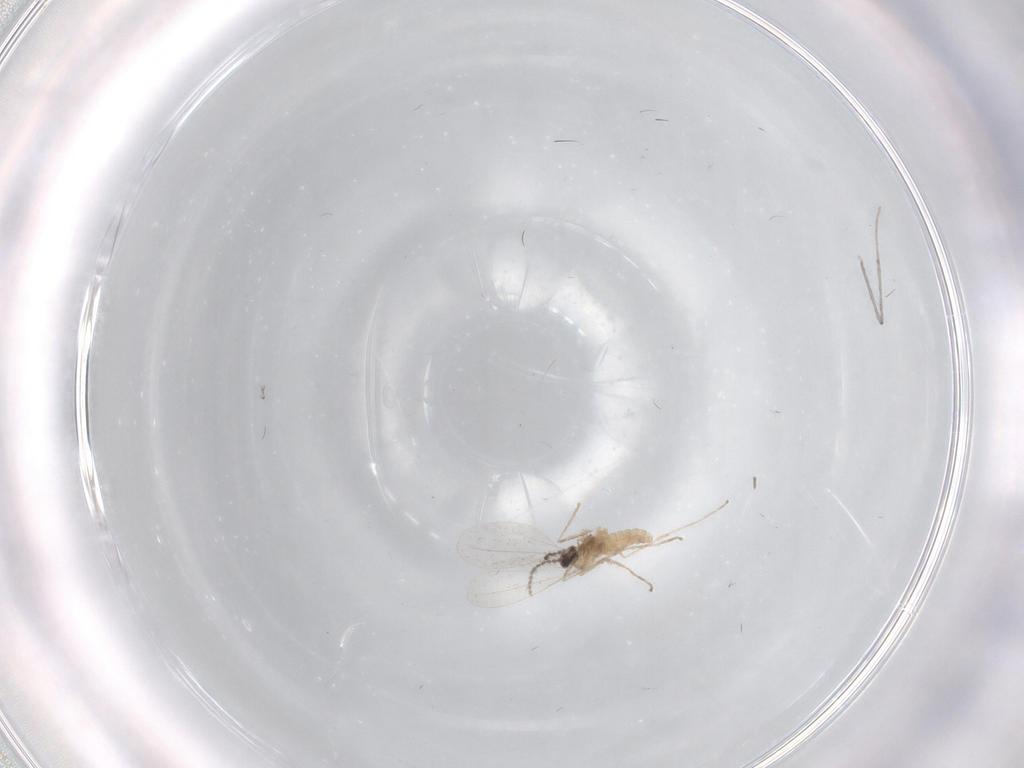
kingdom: Animalia
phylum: Arthropoda
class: Insecta
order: Diptera
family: Cecidomyiidae
